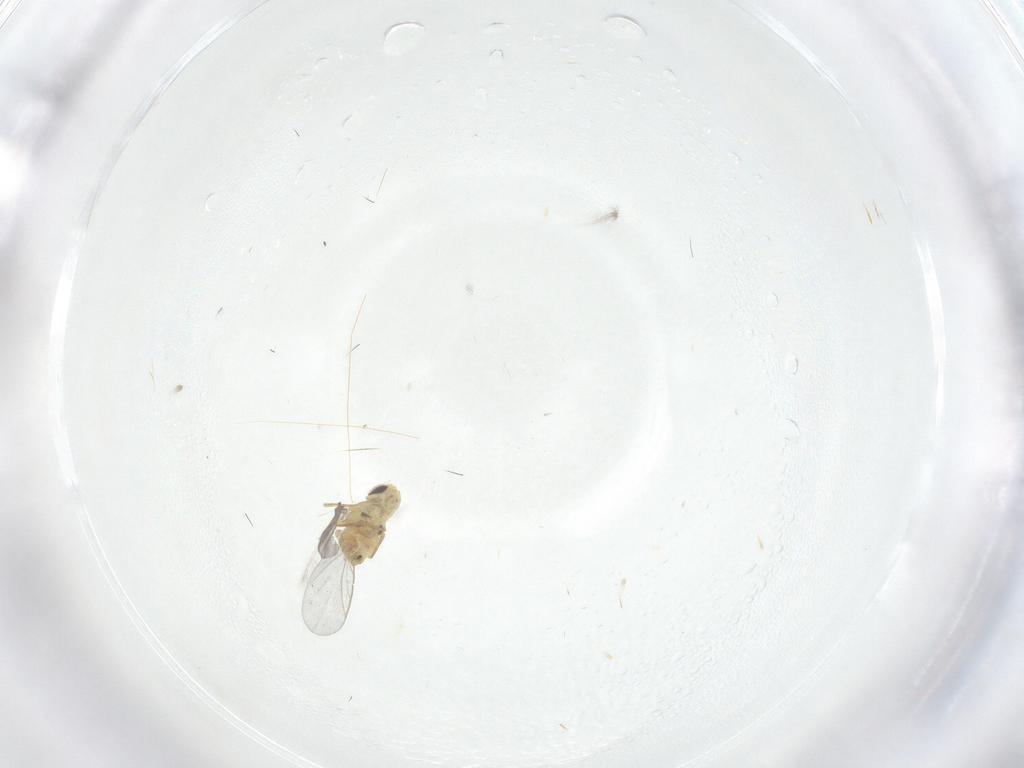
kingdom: Animalia
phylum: Arthropoda
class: Insecta
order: Diptera
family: Agromyzidae
